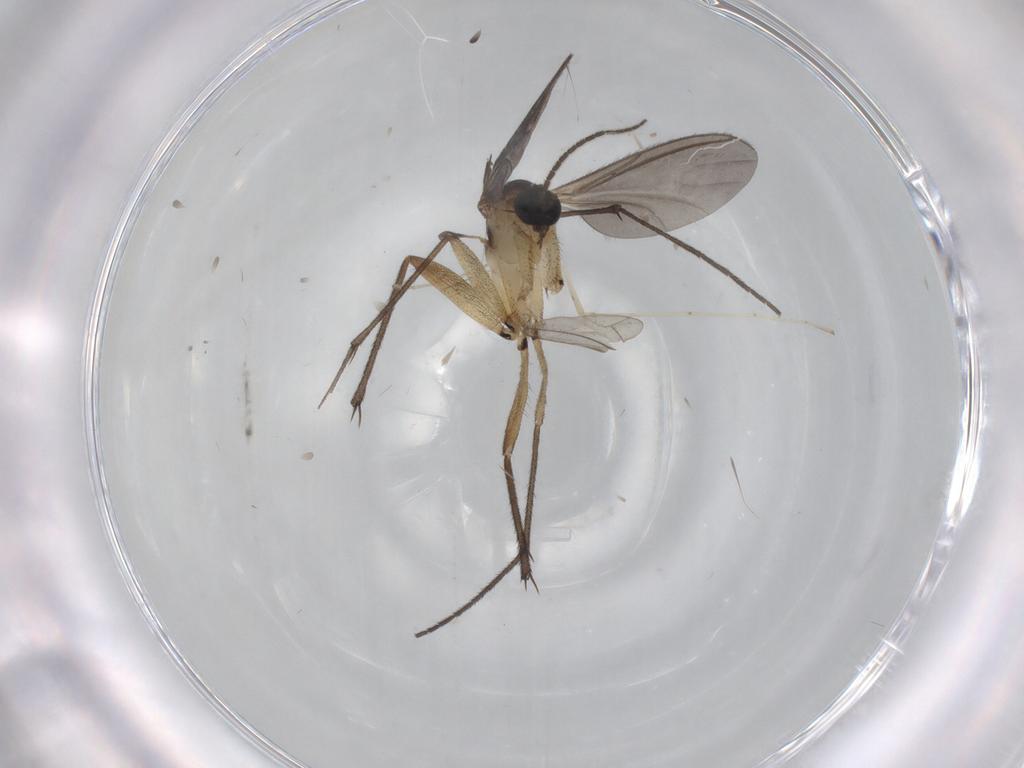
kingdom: Animalia
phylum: Arthropoda
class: Insecta
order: Diptera
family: Sciaridae
